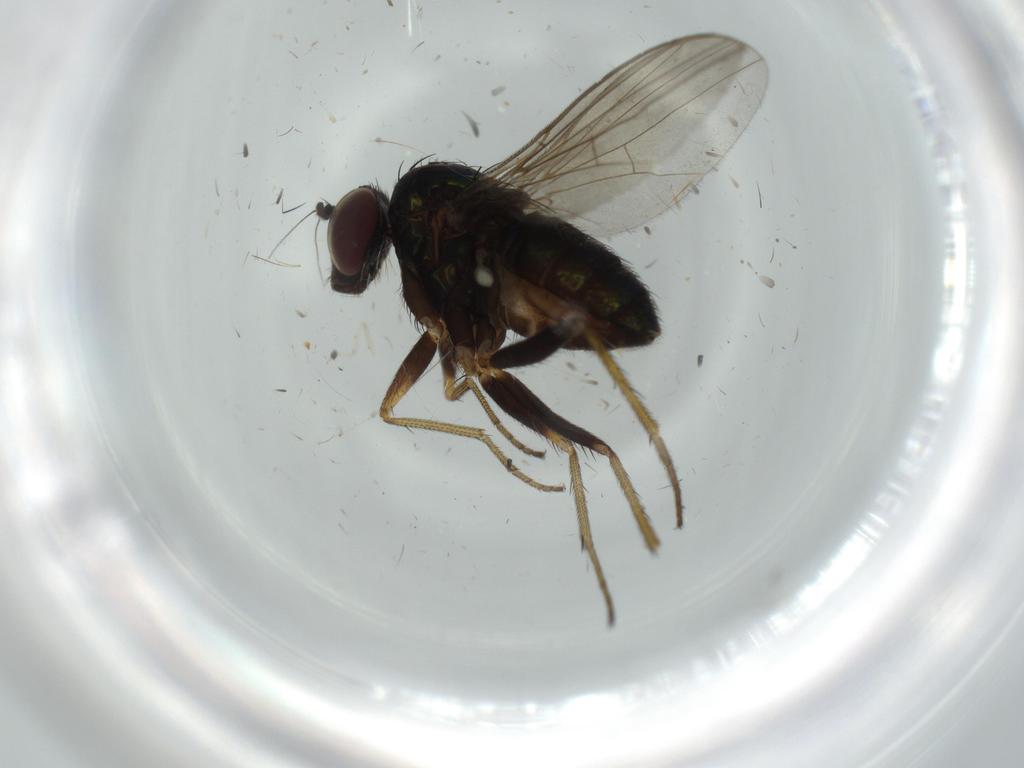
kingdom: Animalia
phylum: Arthropoda
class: Insecta
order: Diptera
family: Cecidomyiidae
